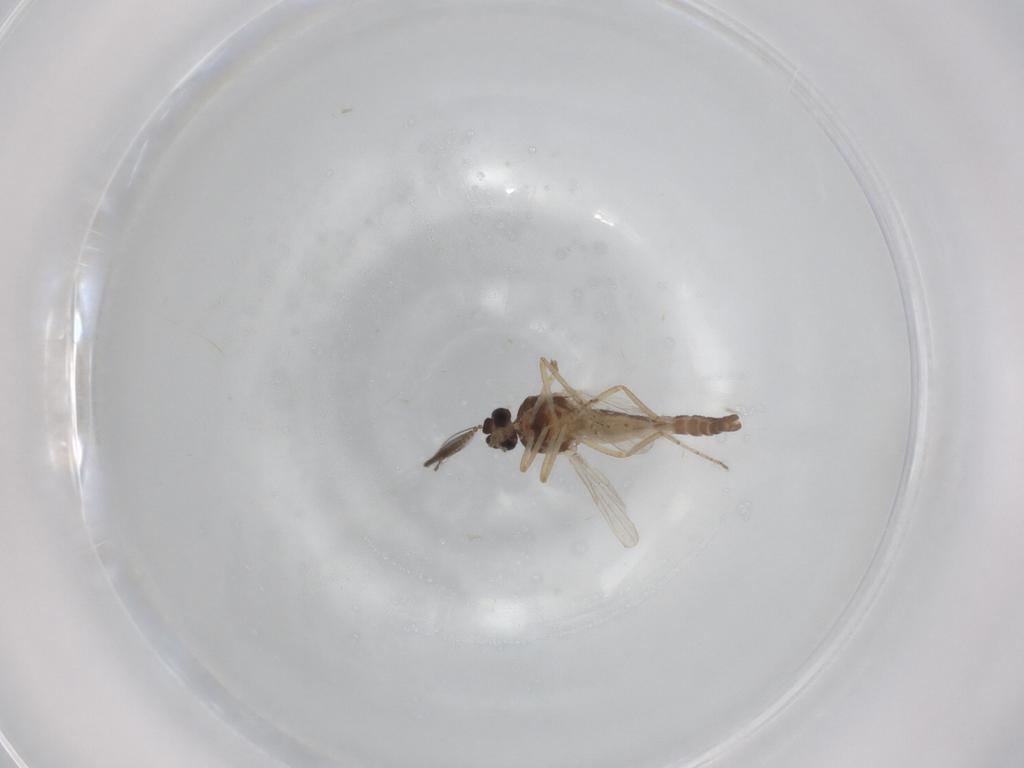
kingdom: Animalia
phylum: Arthropoda
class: Insecta
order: Diptera
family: Ceratopogonidae
